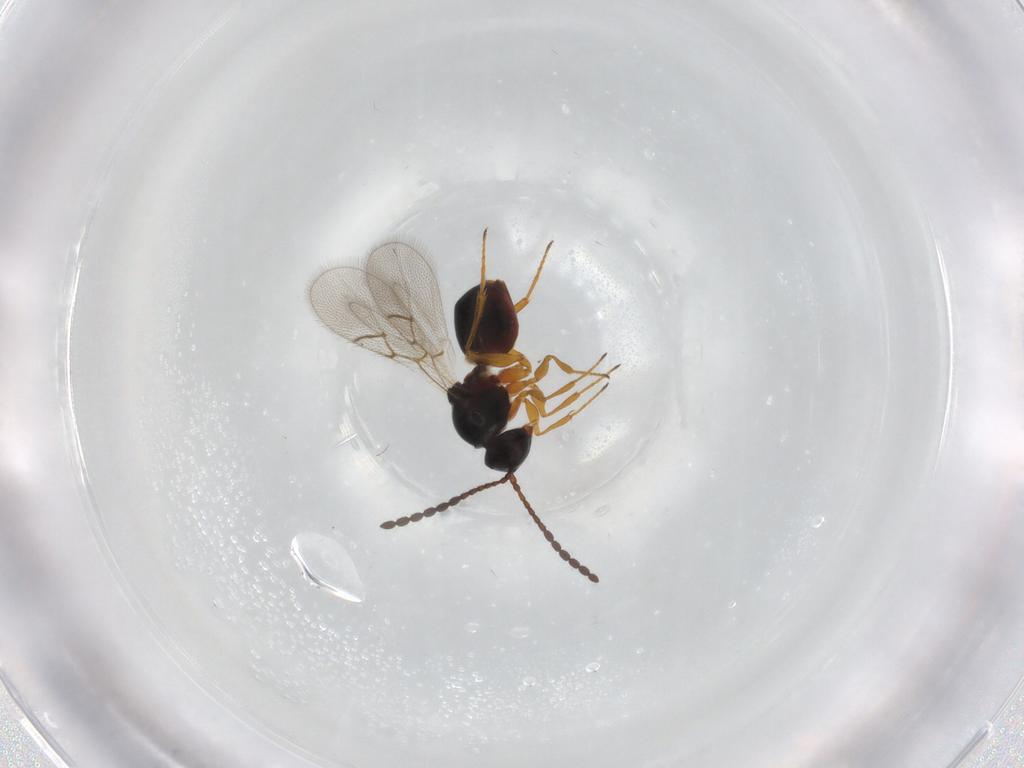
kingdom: Animalia
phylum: Arthropoda
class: Insecta
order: Hymenoptera
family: Figitidae
